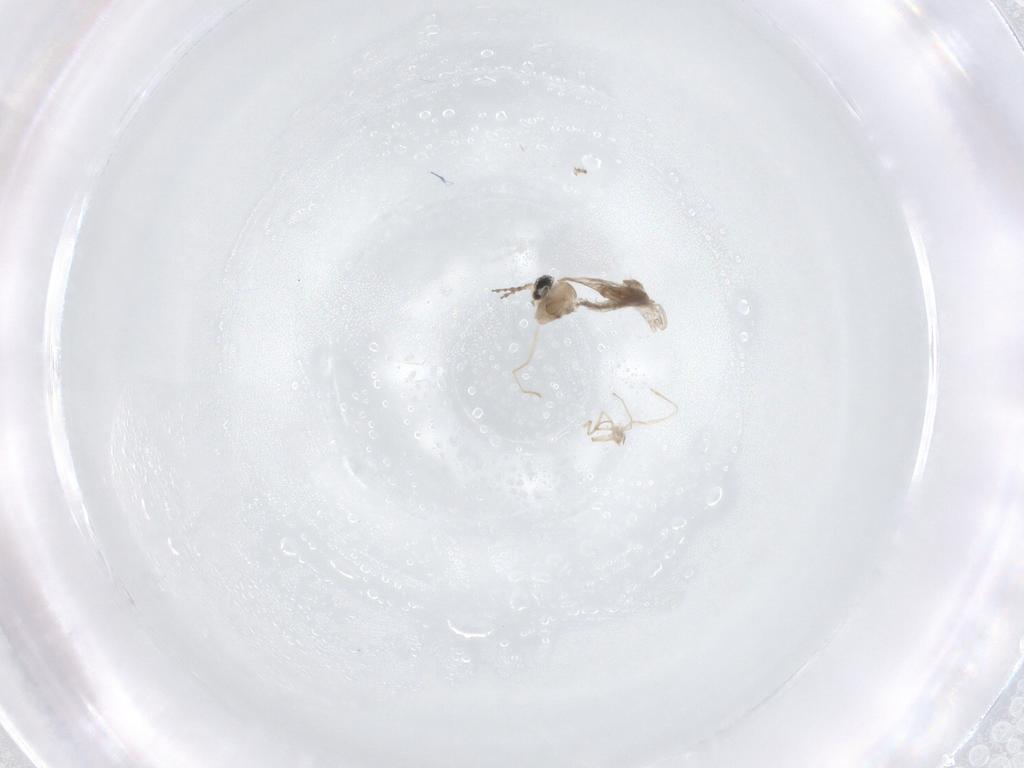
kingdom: Animalia
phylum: Arthropoda
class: Insecta
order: Diptera
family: Cecidomyiidae
